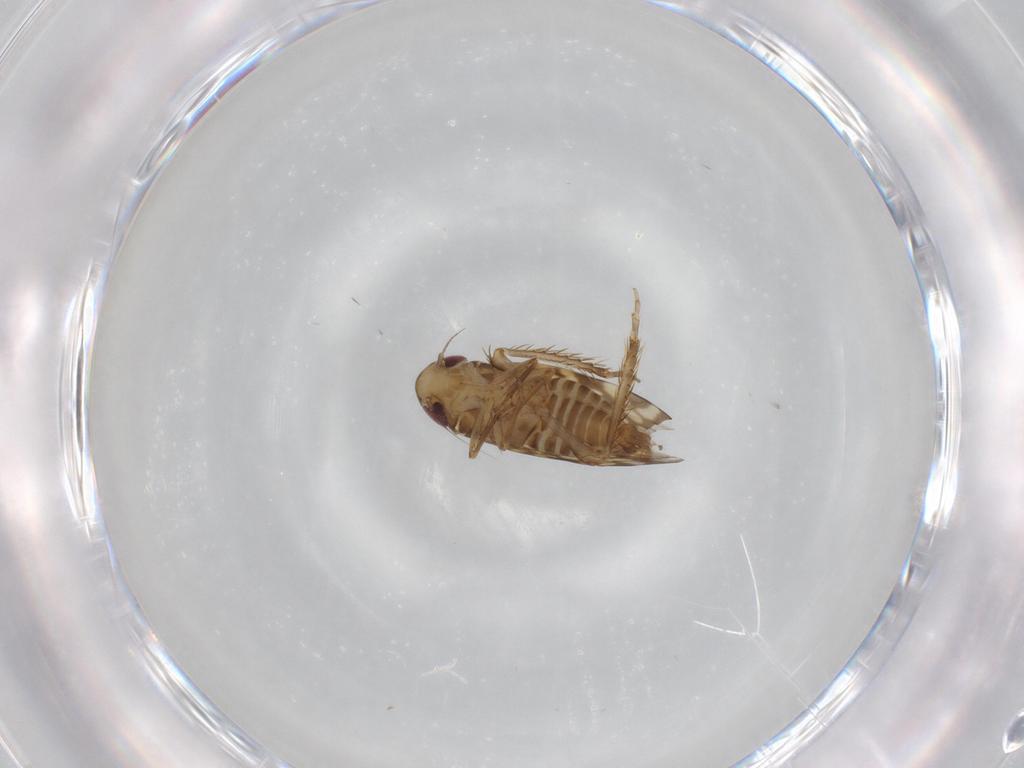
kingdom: Animalia
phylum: Arthropoda
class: Insecta
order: Hemiptera
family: Cicadellidae
